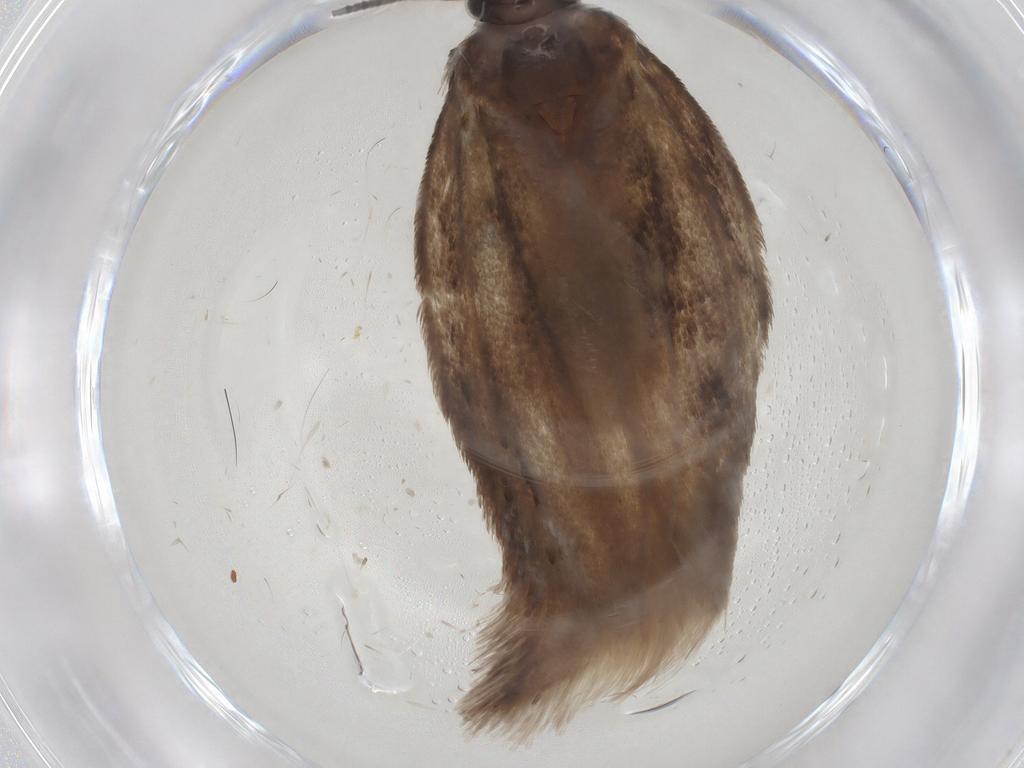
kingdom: Animalia
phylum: Arthropoda
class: Insecta
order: Lepidoptera
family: Roeslerstammiidae
